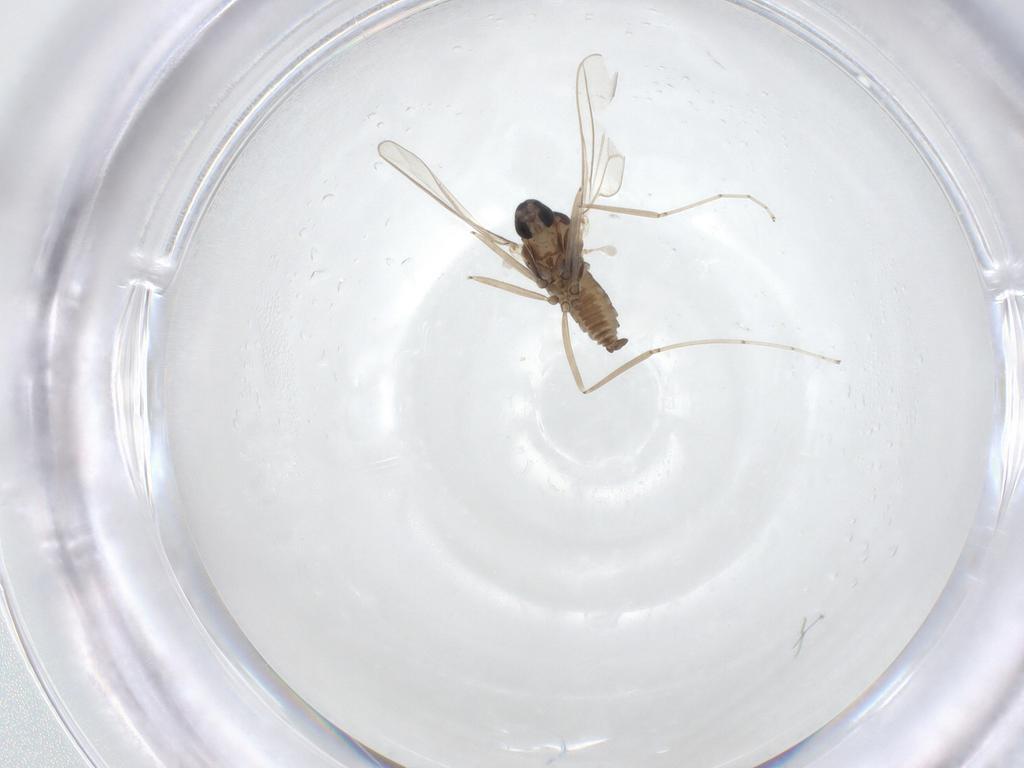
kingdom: Animalia
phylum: Arthropoda
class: Insecta
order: Diptera
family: Cecidomyiidae
